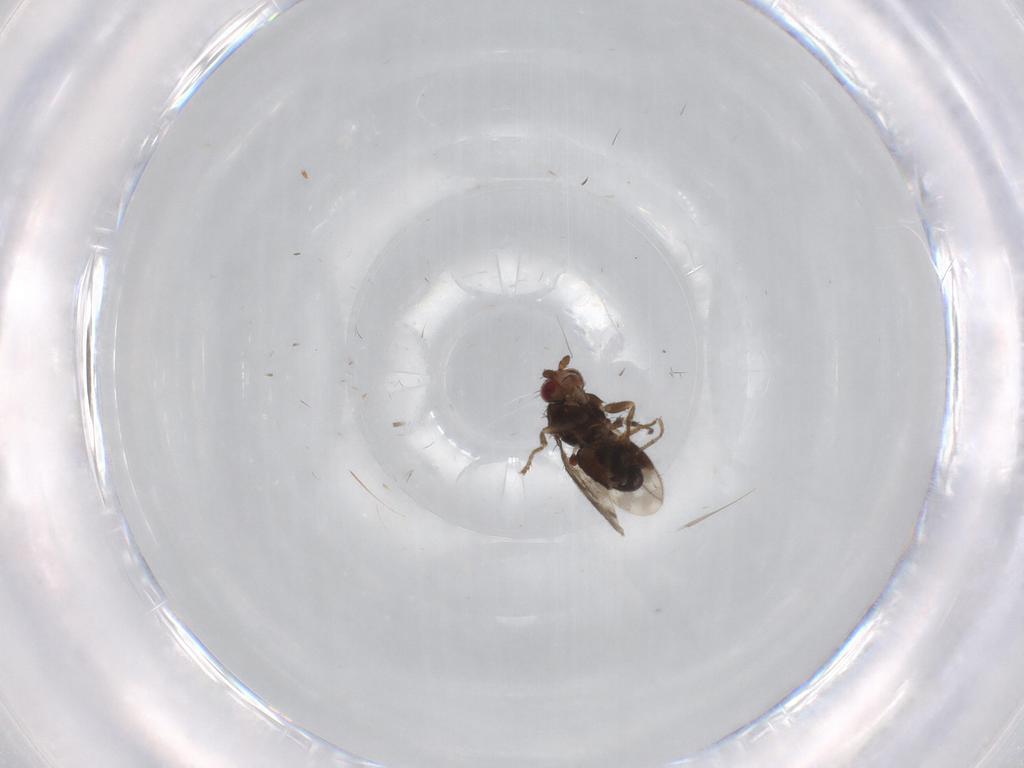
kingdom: Animalia
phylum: Arthropoda
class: Insecta
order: Diptera
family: Sphaeroceridae
